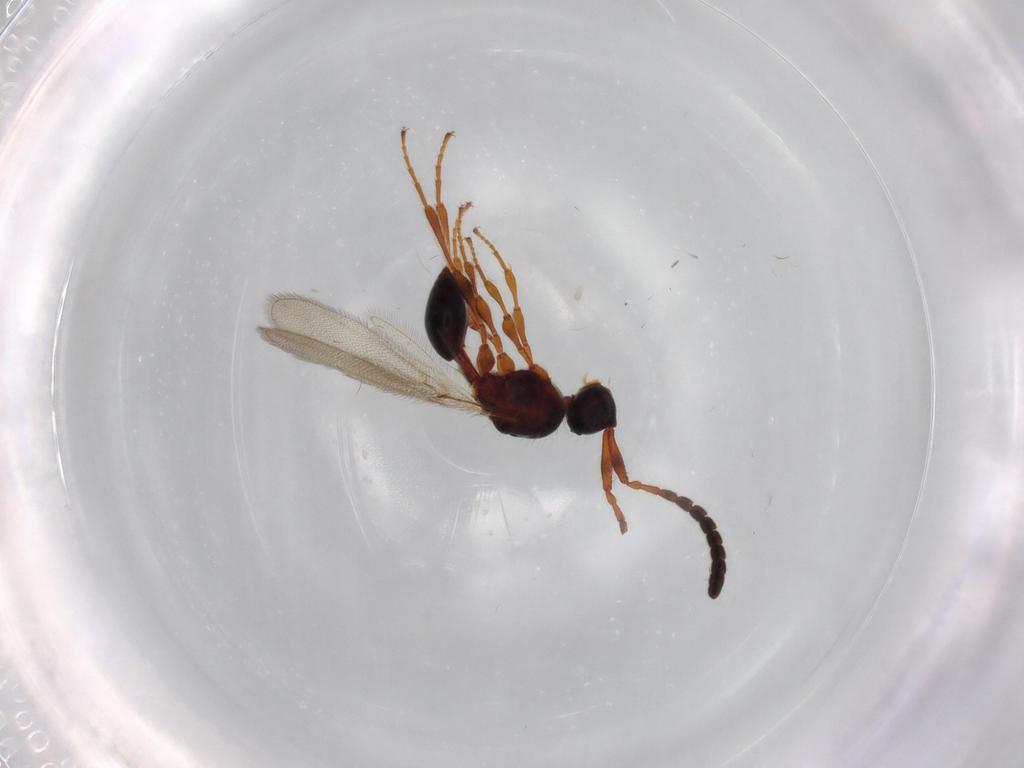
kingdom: Animalia
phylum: Arthropoda
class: Insecta
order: Hymenoptera
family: Diapriidae
